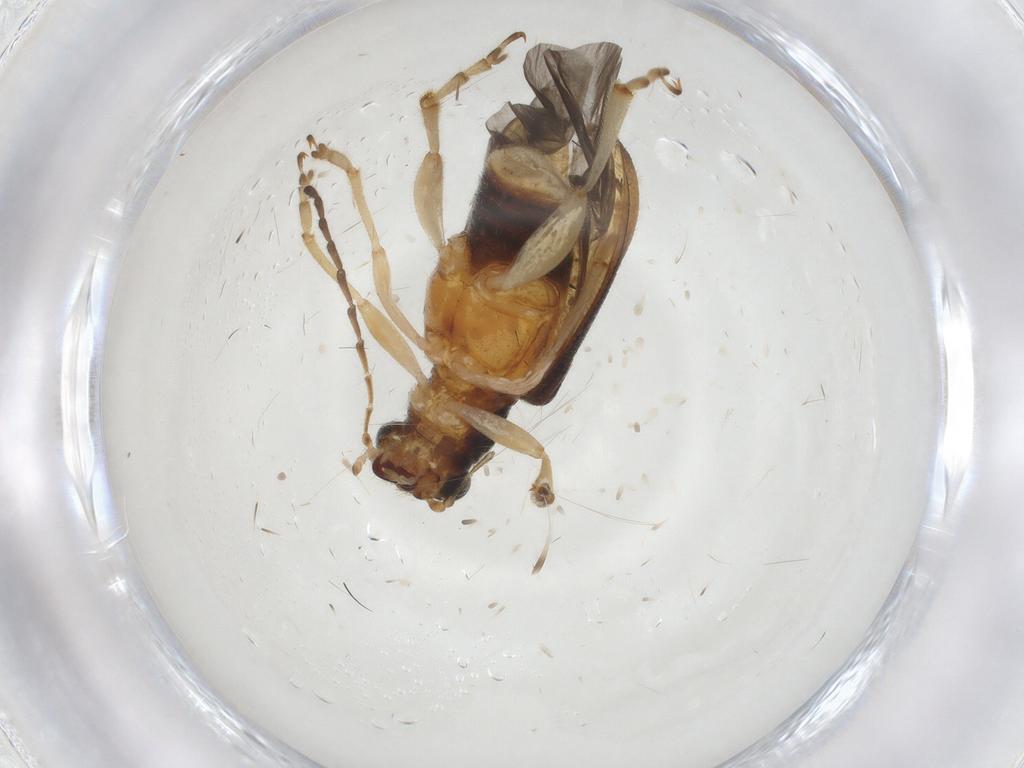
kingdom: Animalia
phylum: Arthropoda
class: Insecta
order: Coleoptera
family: Chrysomelidae
